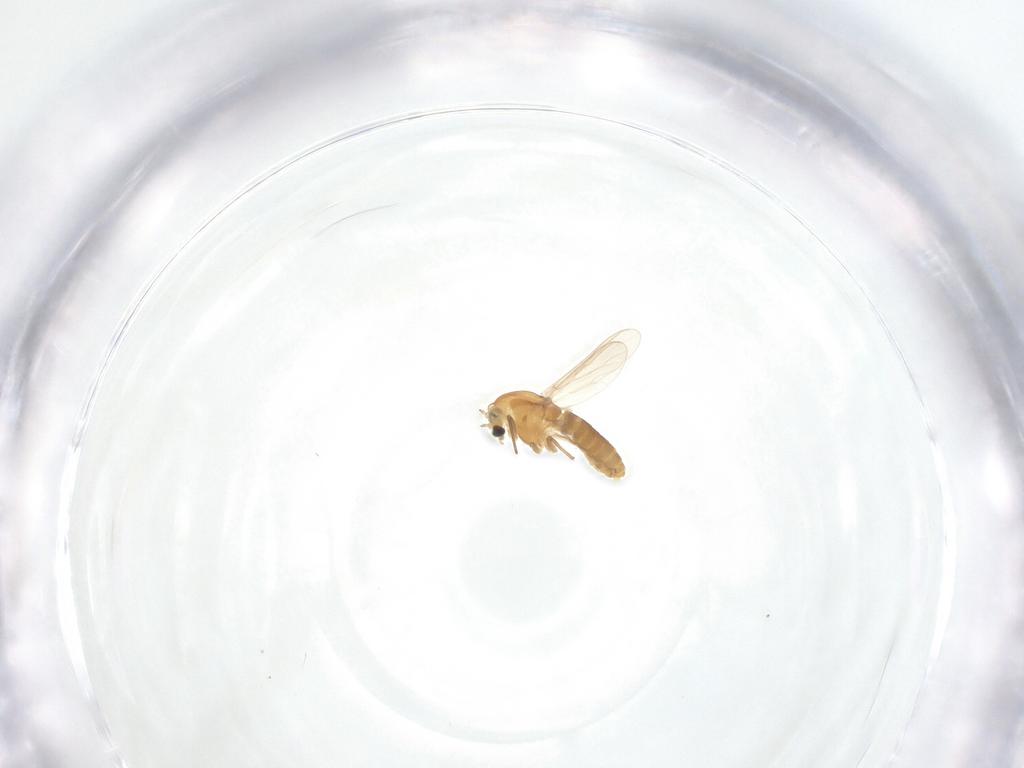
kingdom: Animalia
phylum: Arthropoda
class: Insecta
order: Diptera
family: Chironomidae
